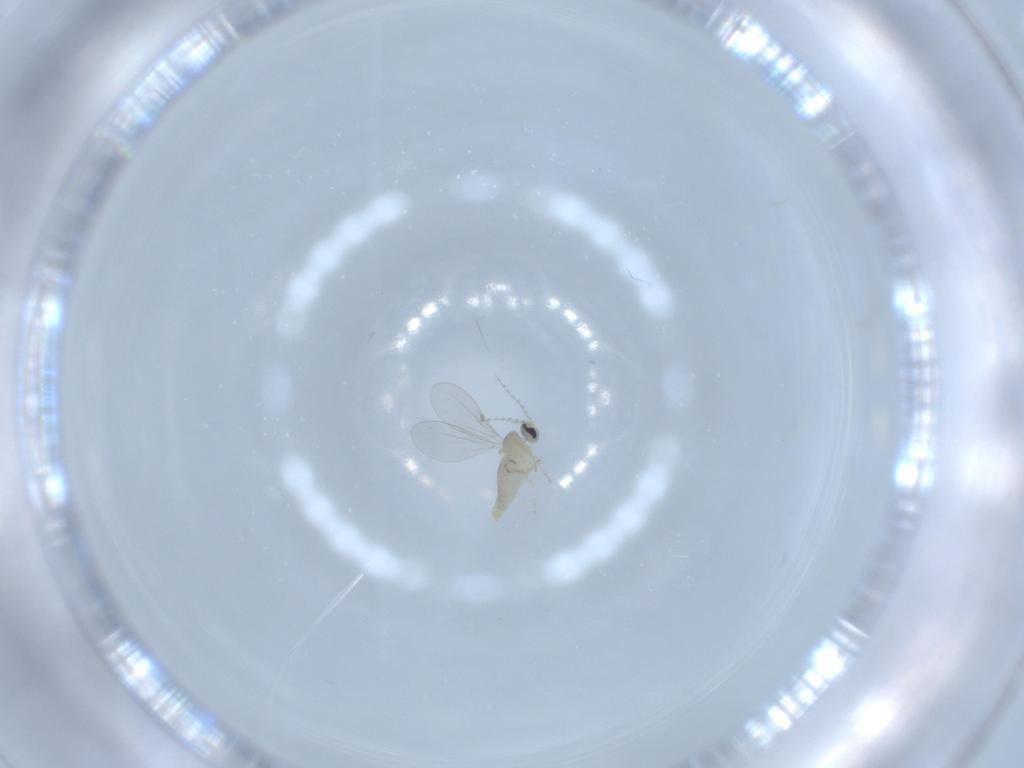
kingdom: Animalia
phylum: Arthropoda
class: Insecta
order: Diptera
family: Cecidomyiidae
